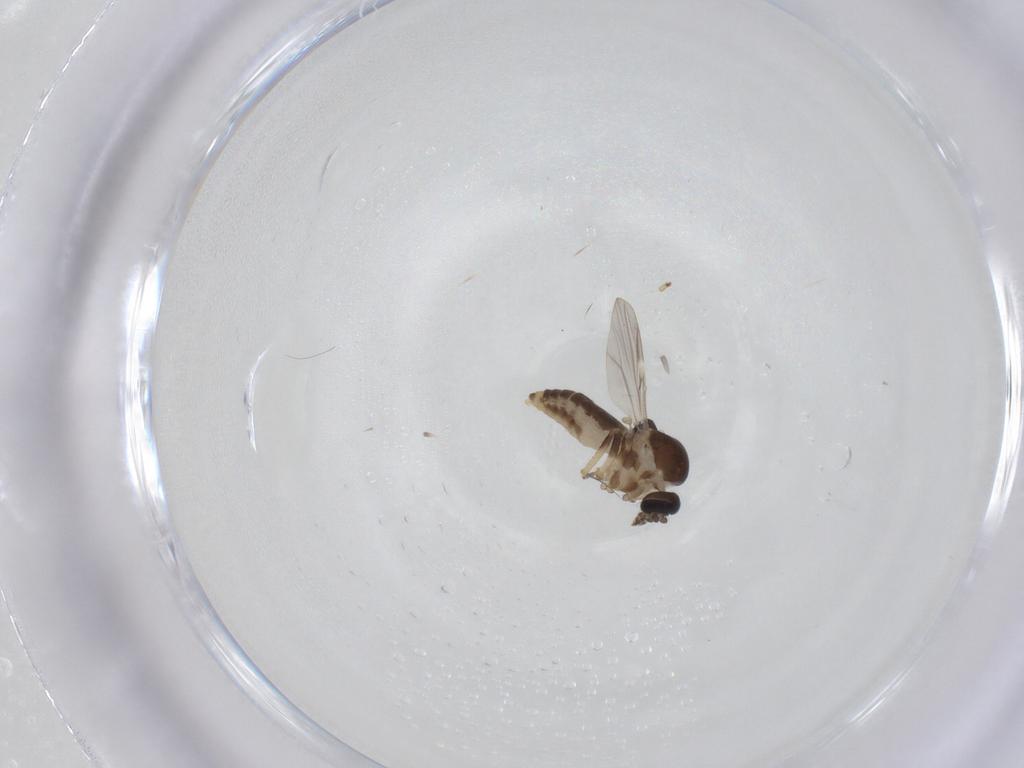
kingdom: Animalia
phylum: Arthropoda
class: Insecta
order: Diptera
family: Ceratopogonidae
